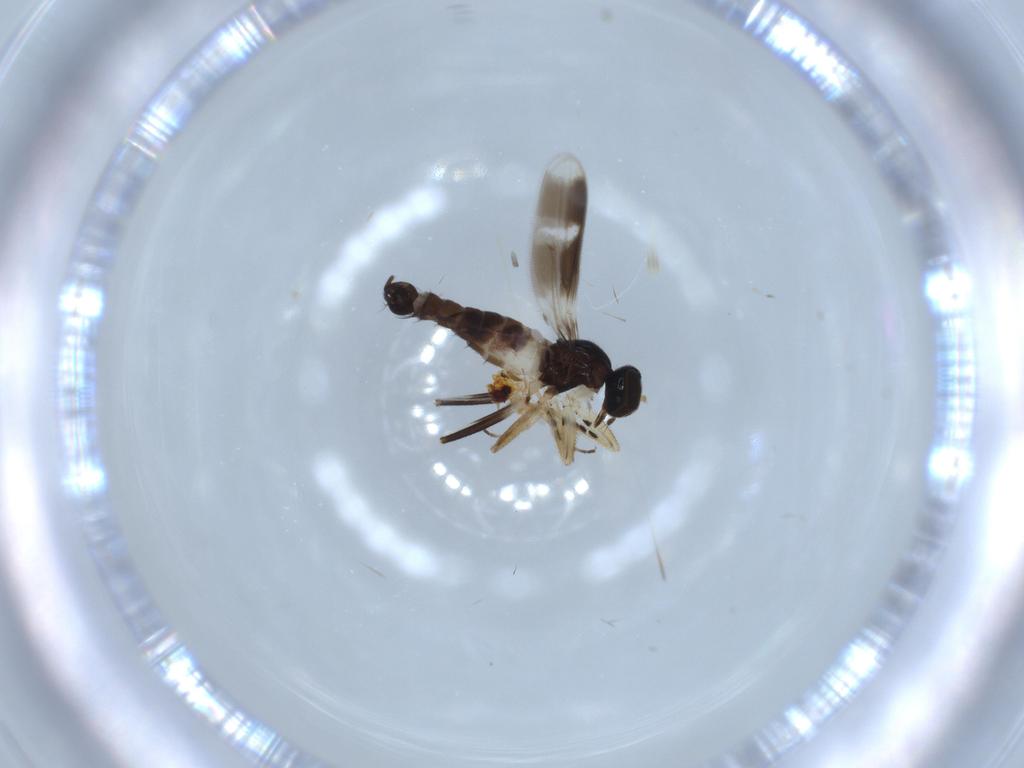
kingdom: Animalia
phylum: Arthropoda
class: Insecta
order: Diptera
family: Hybotidae
